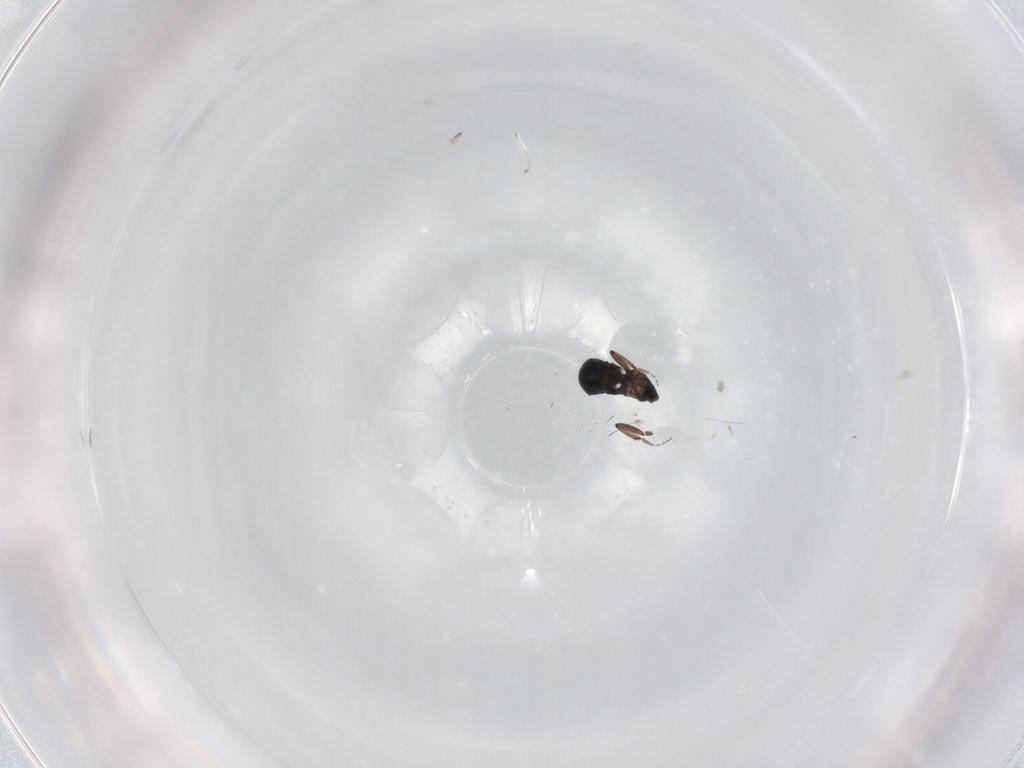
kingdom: Animalia
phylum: Arthropoda
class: Insecta
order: Diptera
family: Ceratopogonidae
